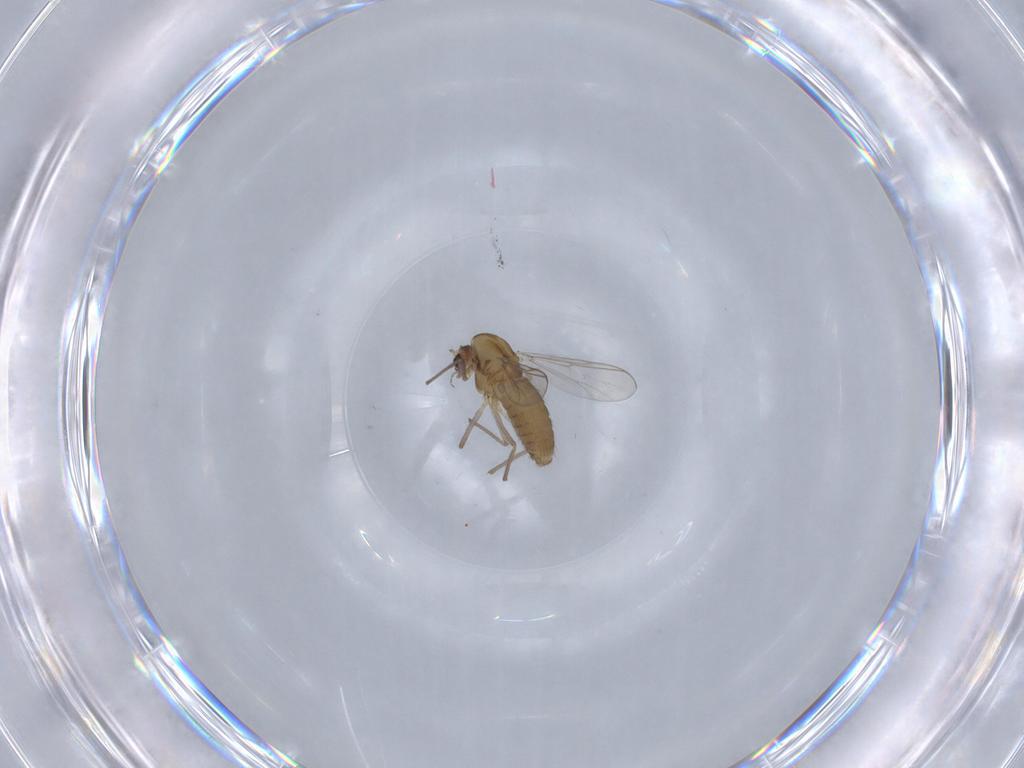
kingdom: Animalia
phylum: Arthropoda
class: Insecta
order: Diptera
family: Chironomidae
